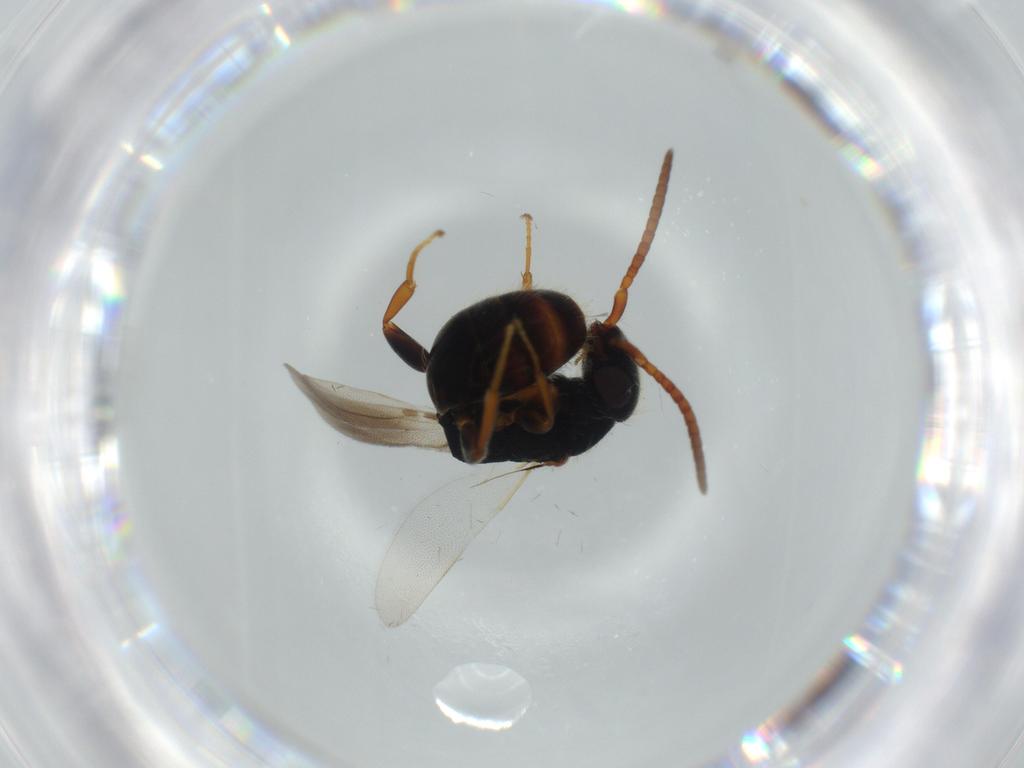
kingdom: Animalia
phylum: Arthropoda
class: Insecta
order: Hymenoptera
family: Bethylidae
